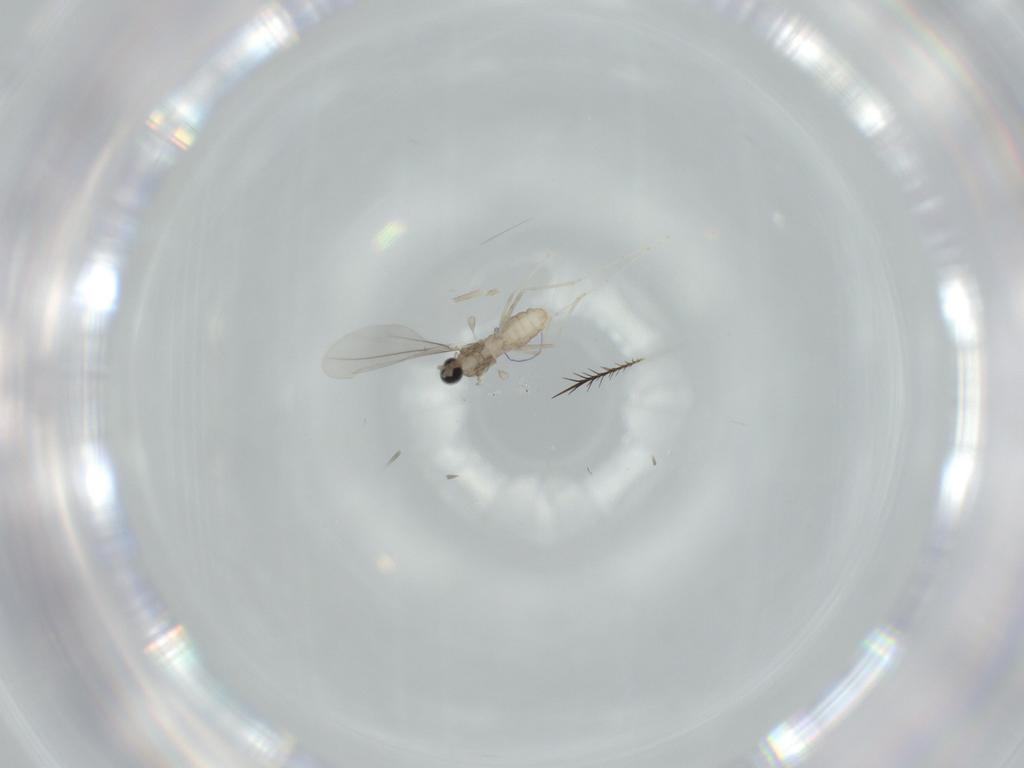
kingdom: Animalia
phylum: Arthropoda
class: Insecta
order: Diptera
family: Cecidomyiidae
